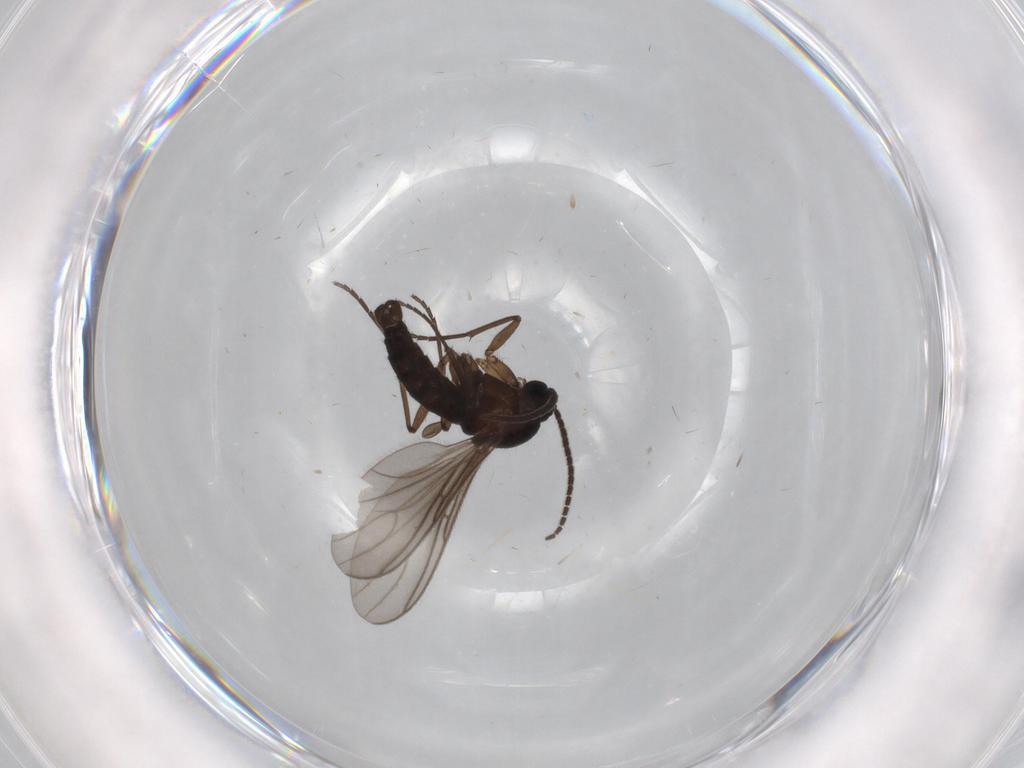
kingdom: Animalia
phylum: Arthropoda
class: Insecta
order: Diptera
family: Sciaridae
